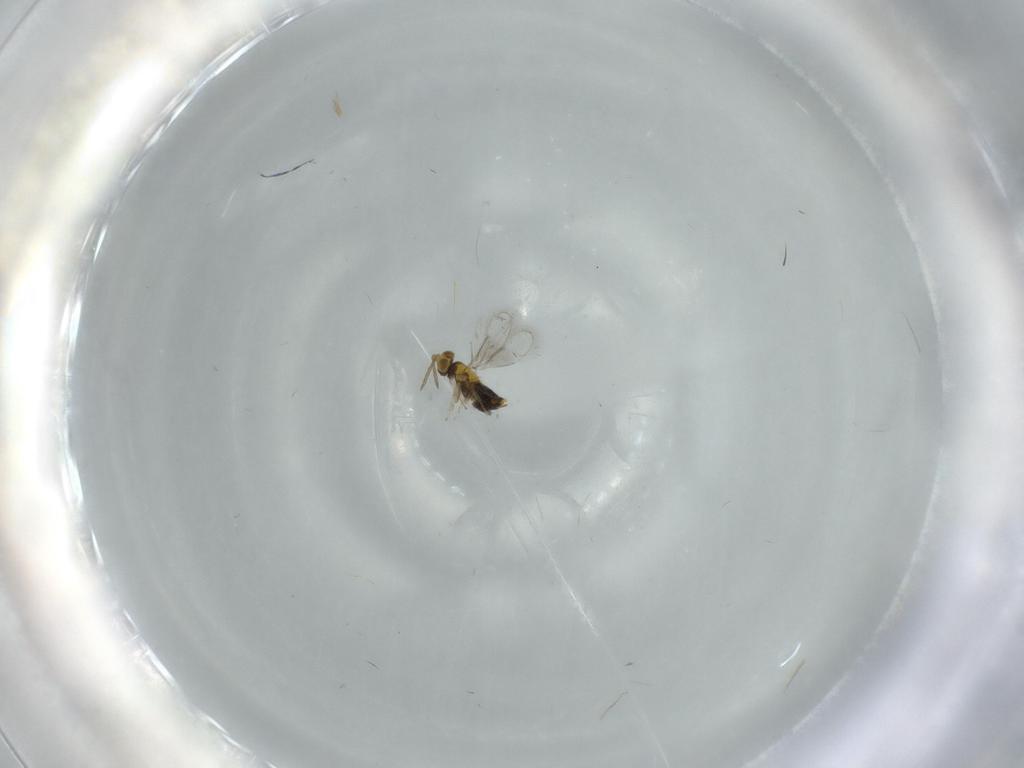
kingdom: Animalia
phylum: Arthropoda
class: Insecta
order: Hymenoptera
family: Aphelinidae
